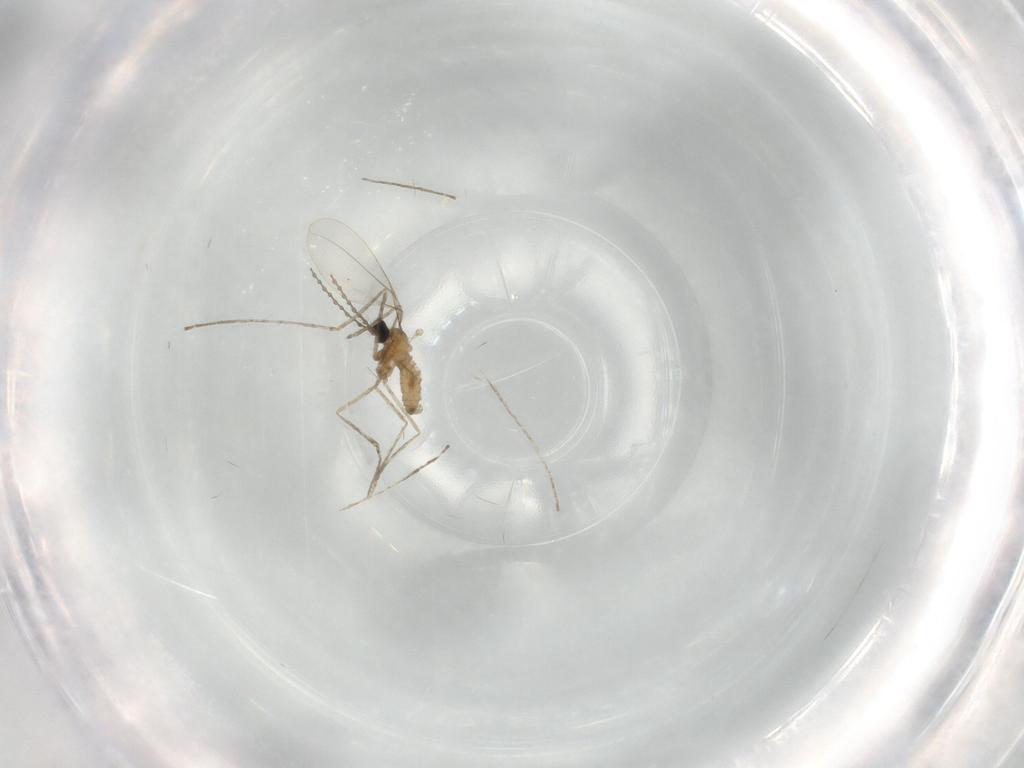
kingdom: Animalia
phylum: Arthropoda
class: Insecta
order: Diptera
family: Cecidomyiidae
